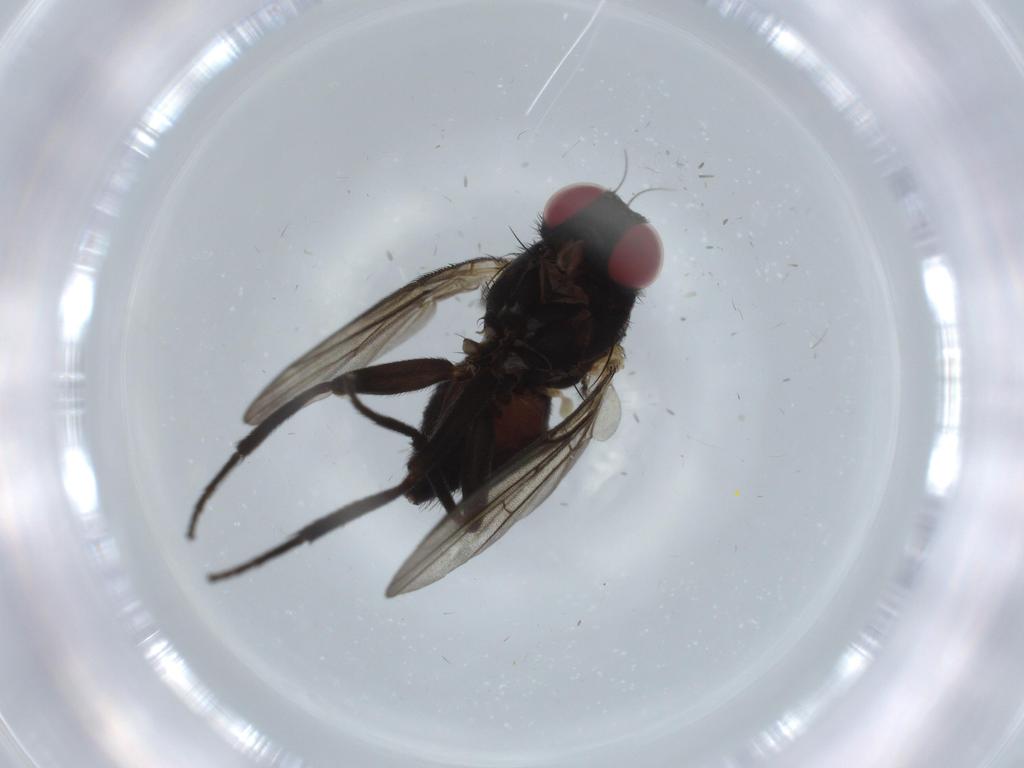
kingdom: Animalia
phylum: Arthropoda
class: Insecta
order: Diptera
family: Agromyzidae
